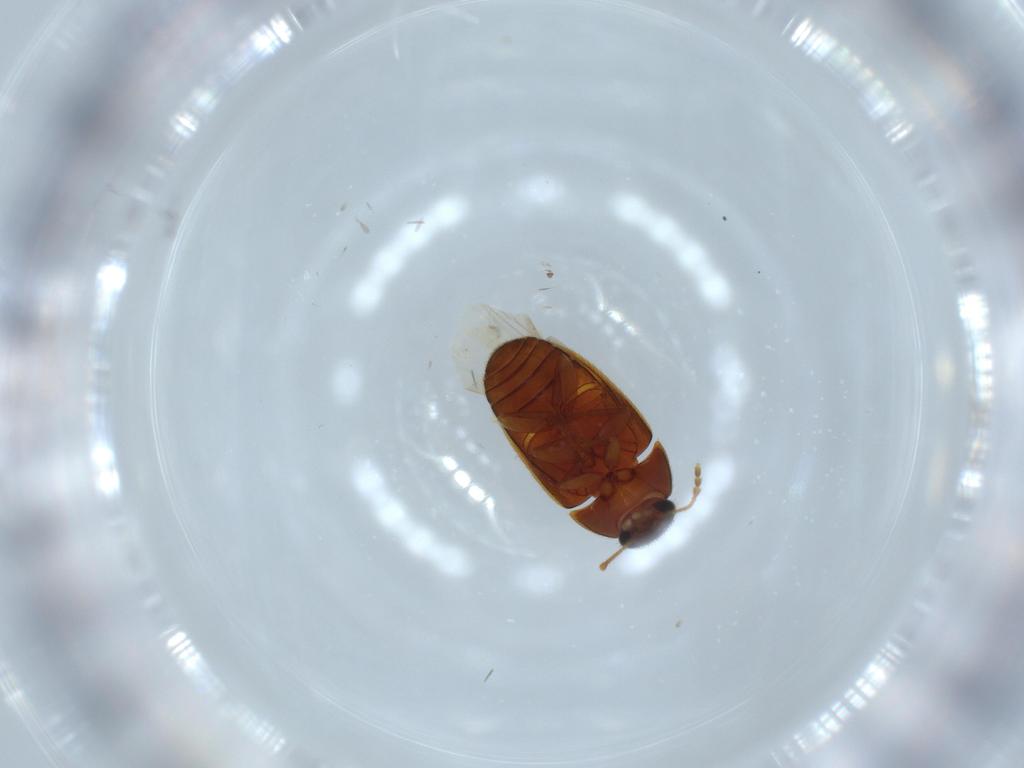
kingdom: Animalia
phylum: Arthropoda
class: Insecta
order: Coleoptera
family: Mycetophagidae
